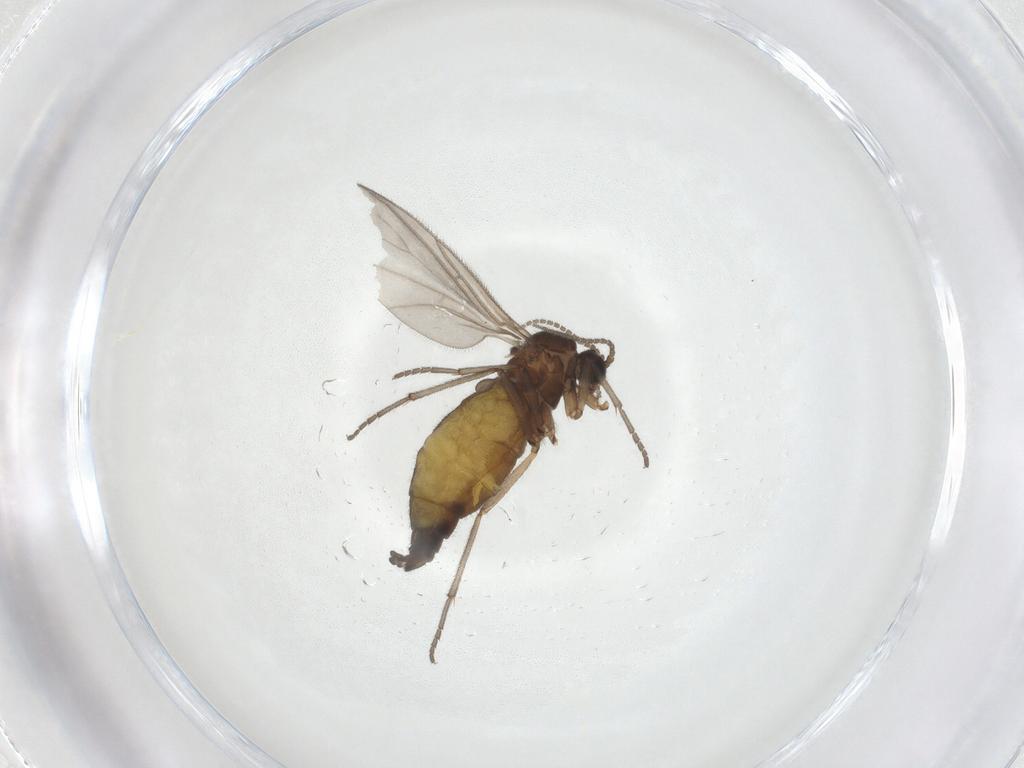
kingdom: Animalia
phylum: Arthropoda
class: Insecta
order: Diptera
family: Sciaridae
